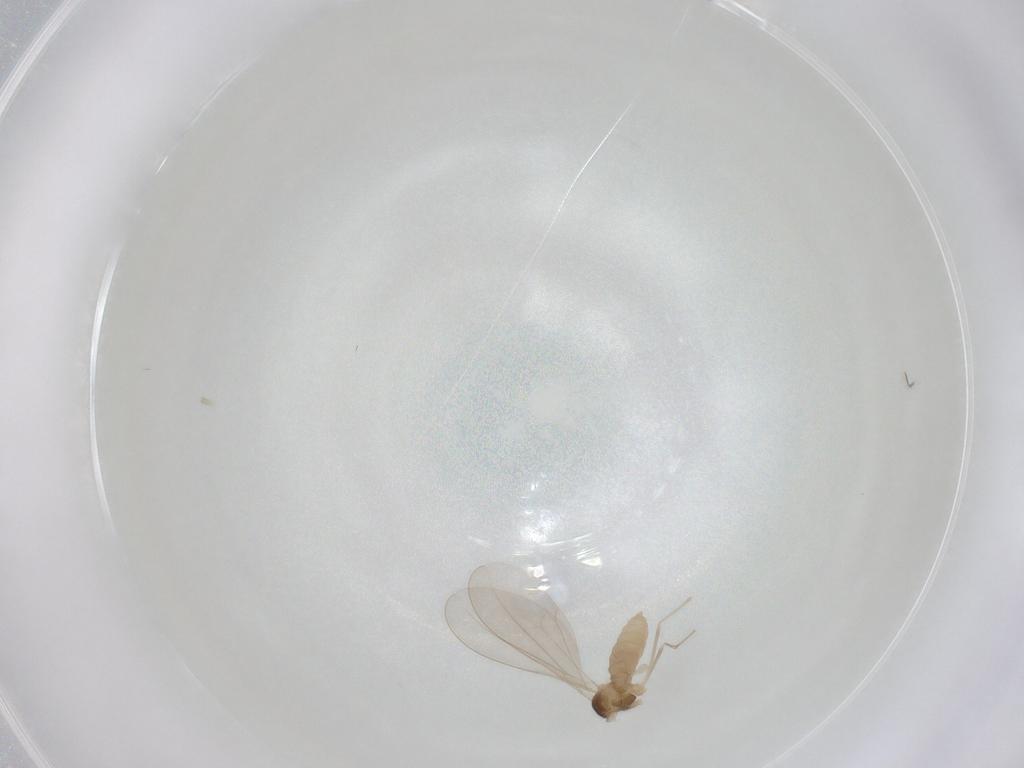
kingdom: Animalia
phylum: Arthropoda
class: Insecta
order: Diptera
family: Cecidomyiidae
